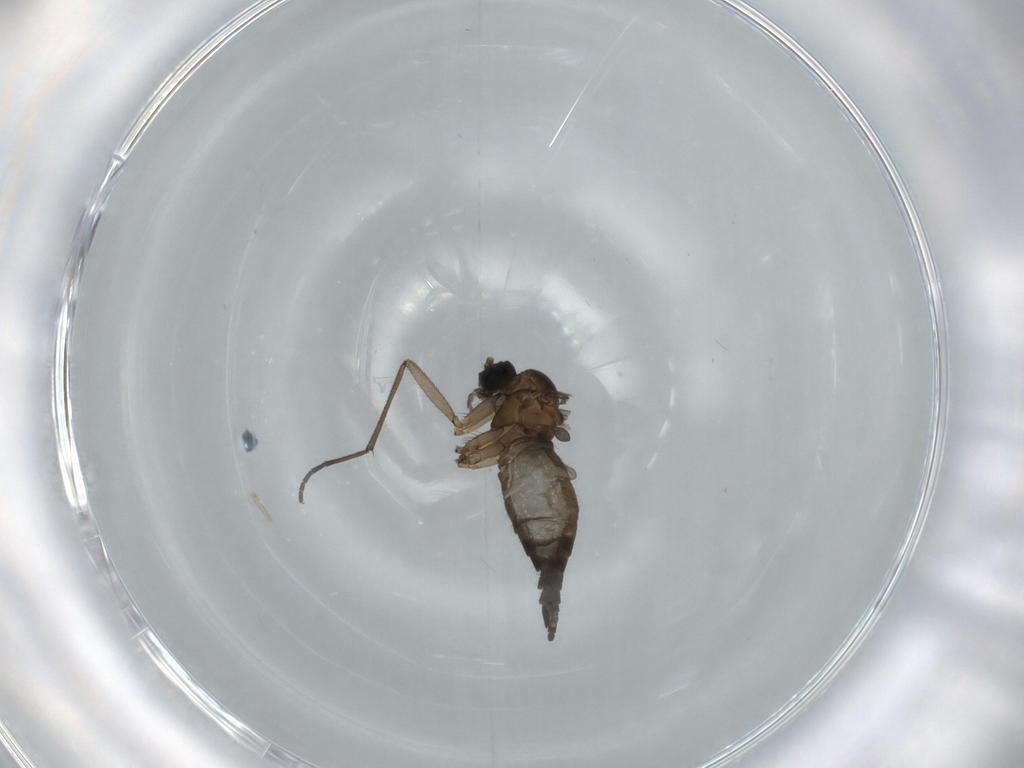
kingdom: Animalia
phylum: Arthropoda
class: Insecta
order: Diptera
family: Sciaridae
